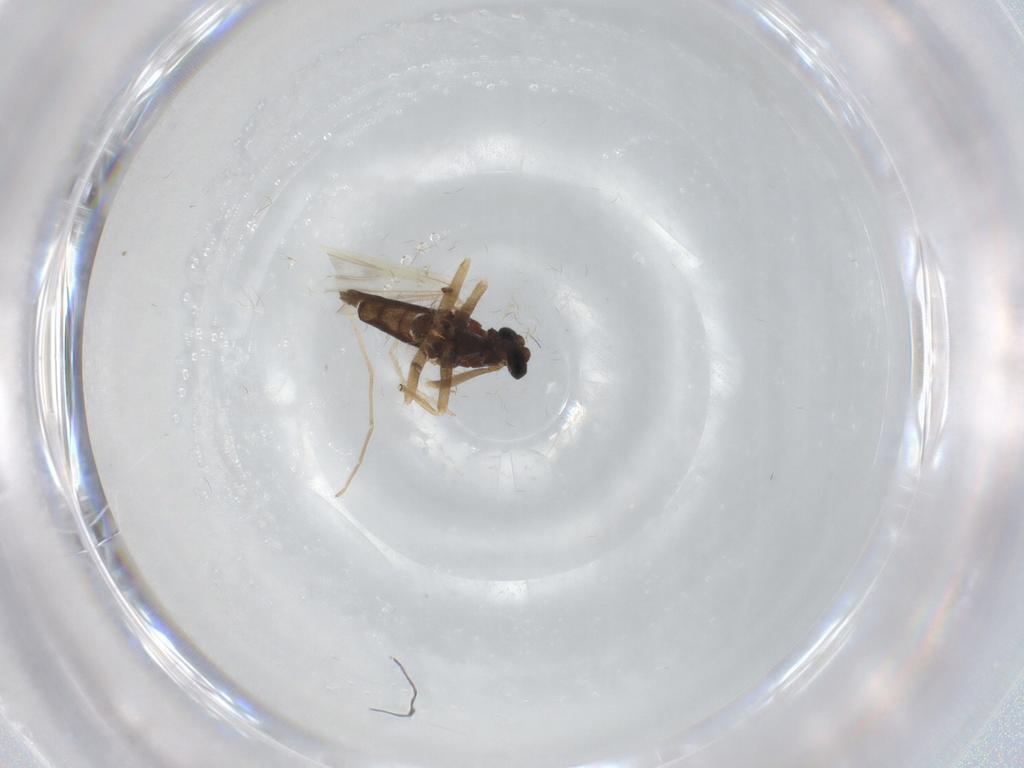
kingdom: Animalia
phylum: Arthropoda
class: Insecta
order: Diptera
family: Chironomidae
